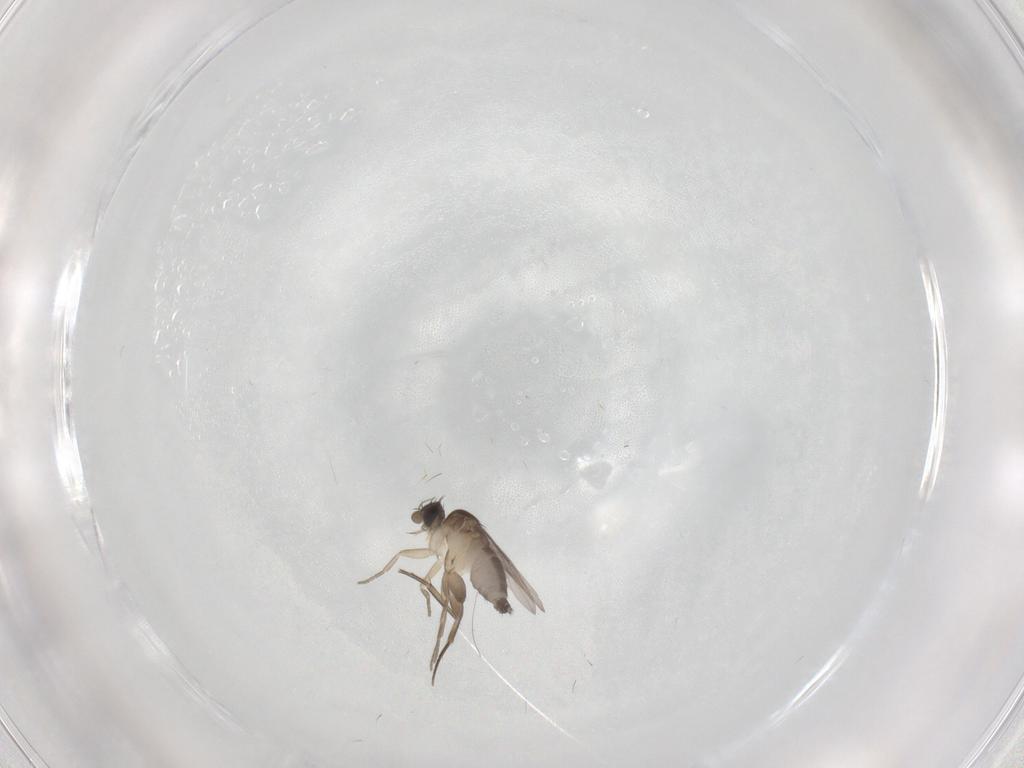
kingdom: Animalia
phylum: Arthropoda
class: Insecta
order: Diptera
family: Phoridae
